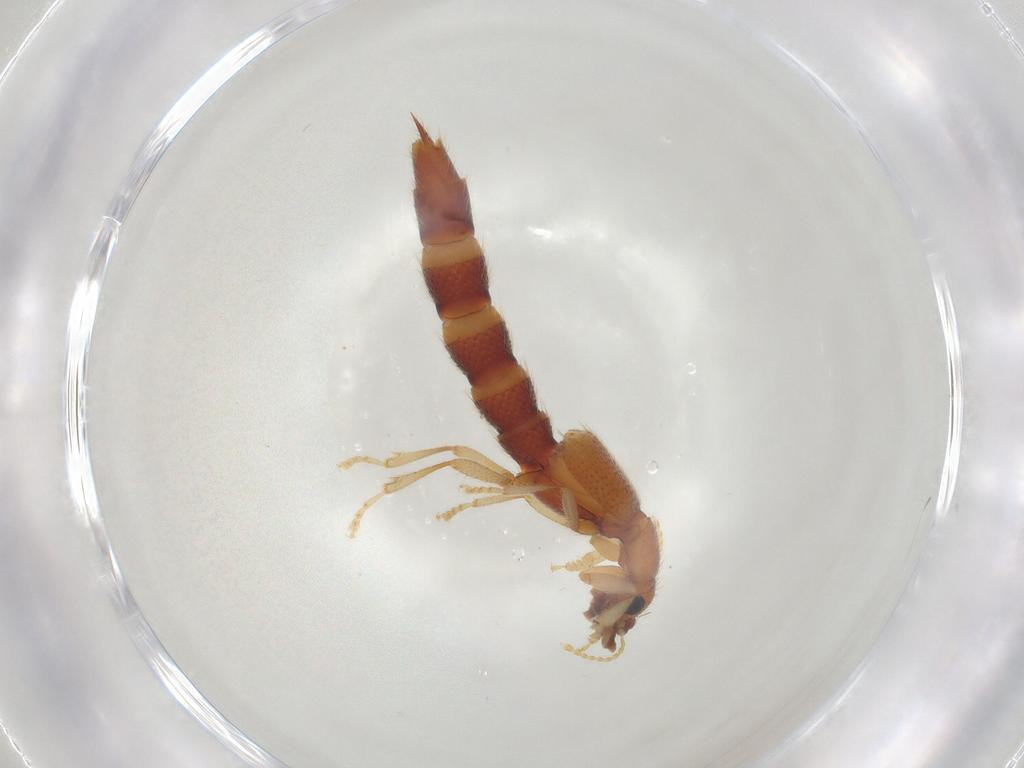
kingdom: Animalia
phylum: Arthropoda
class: Insecta
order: Coleoptera
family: Staphylinidae
